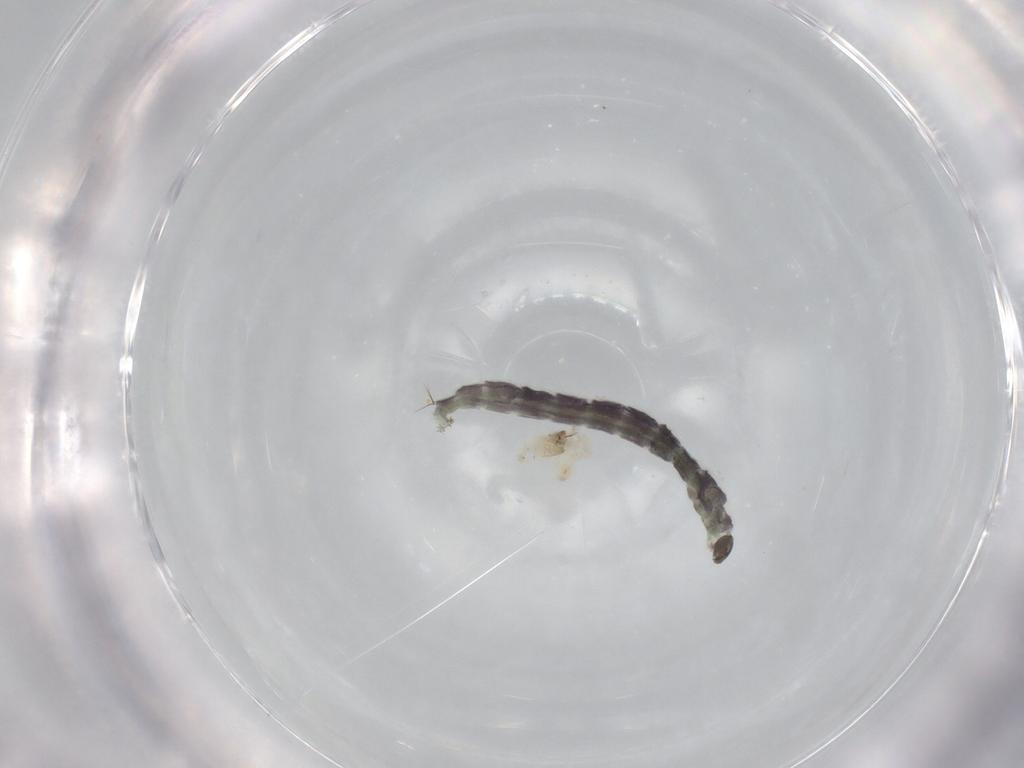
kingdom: Animalia
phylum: Arthropoda
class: Insecta
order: Diptera
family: Chironomidae
